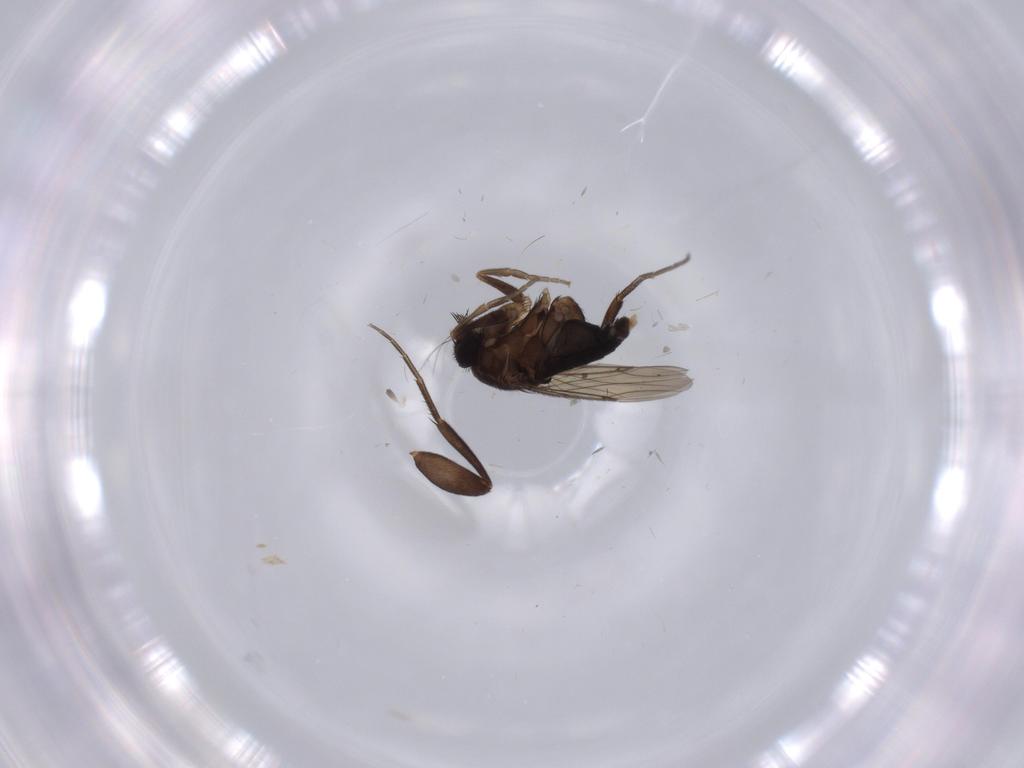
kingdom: Animalia
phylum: Arthropoda
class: Insecta
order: Diptera
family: Phoridae
